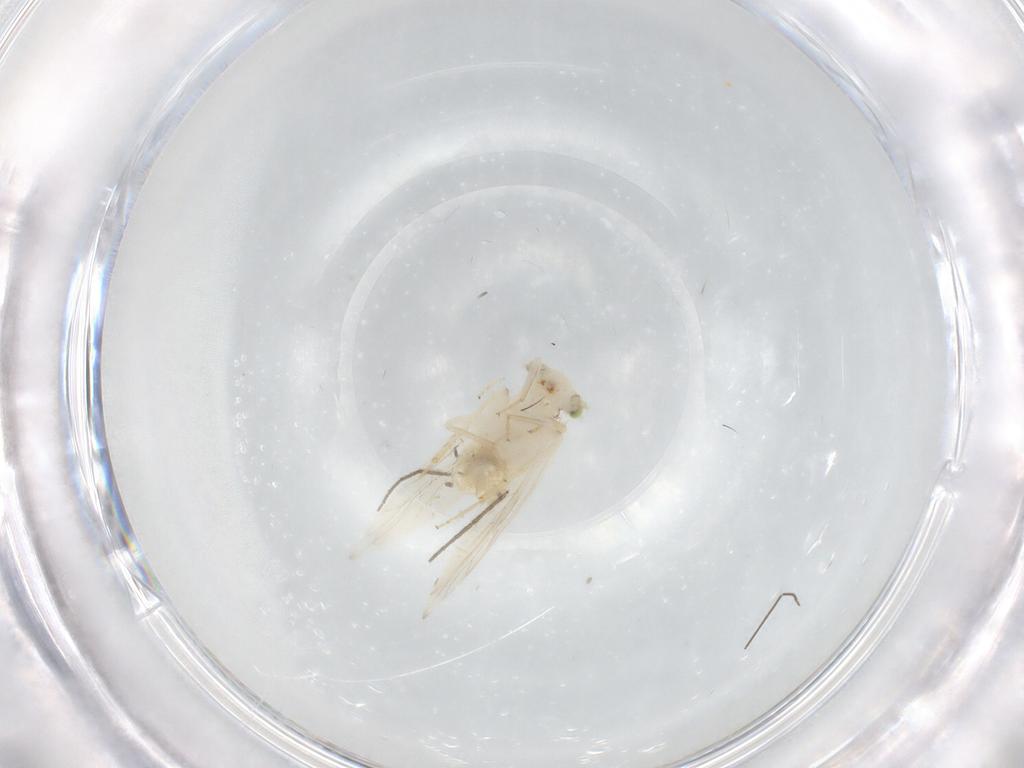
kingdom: Animalia
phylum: Arthropoda
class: Insecta
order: Psocodea
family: Lepidopsocidae
